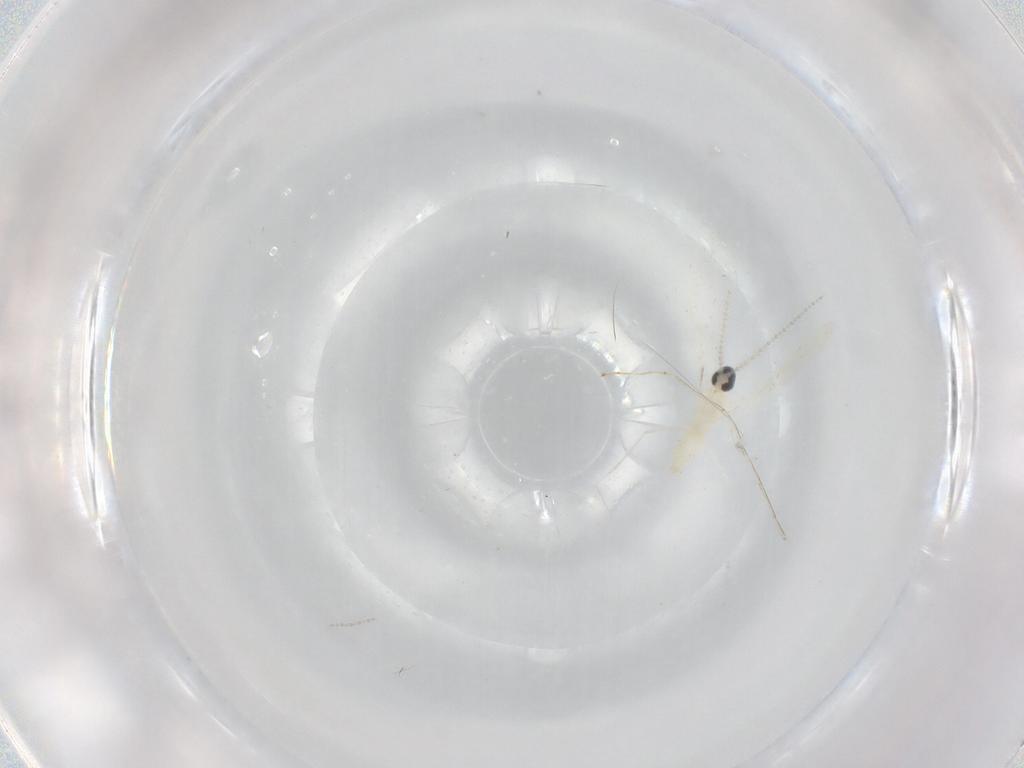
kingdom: Animalia
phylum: Arthropoda
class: Insecta
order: Diptera
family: Cecidomyiidae
